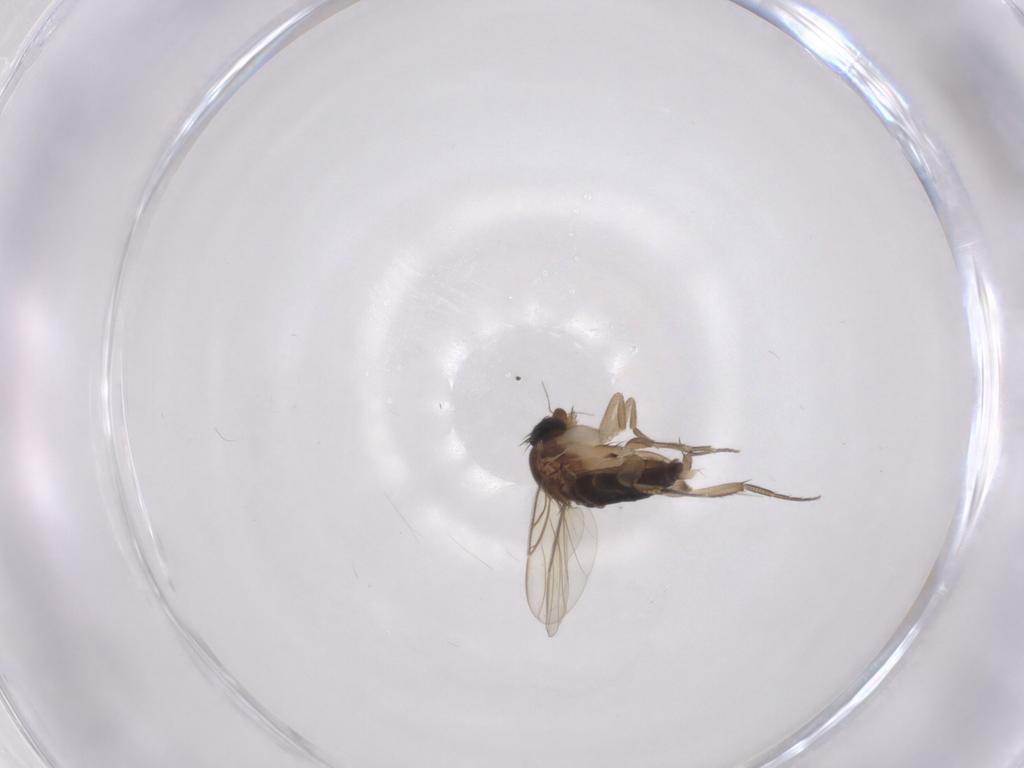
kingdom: Animalia
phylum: Arthropoda
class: Insecta
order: Diptera
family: Phoridae
